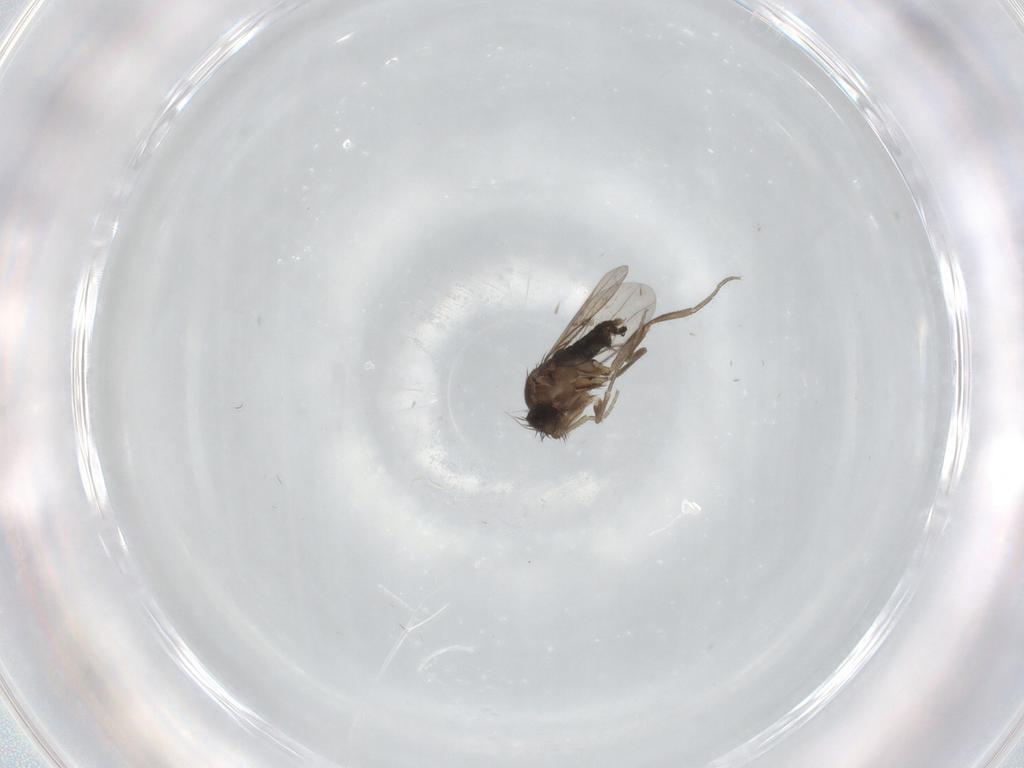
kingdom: Animalia
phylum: Arthropoda
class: Insecta
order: Diptera
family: Phoridae
